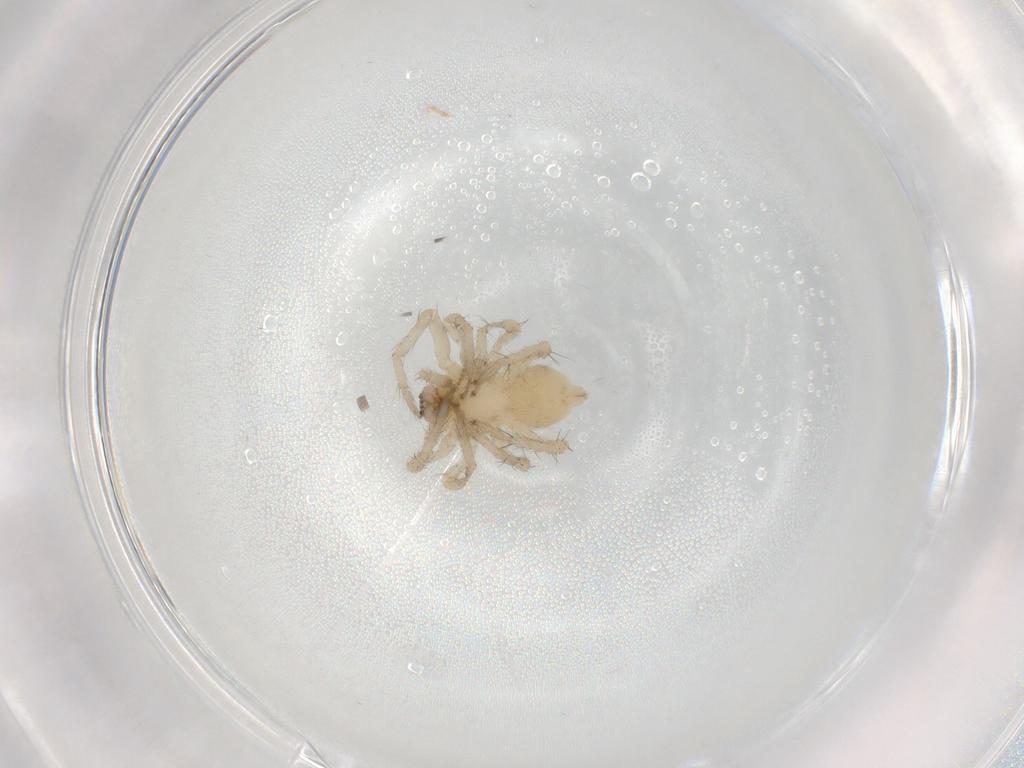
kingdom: Animalia
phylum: Arthropoda
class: Arachnida
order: Araneae
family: Anyphaenidae
